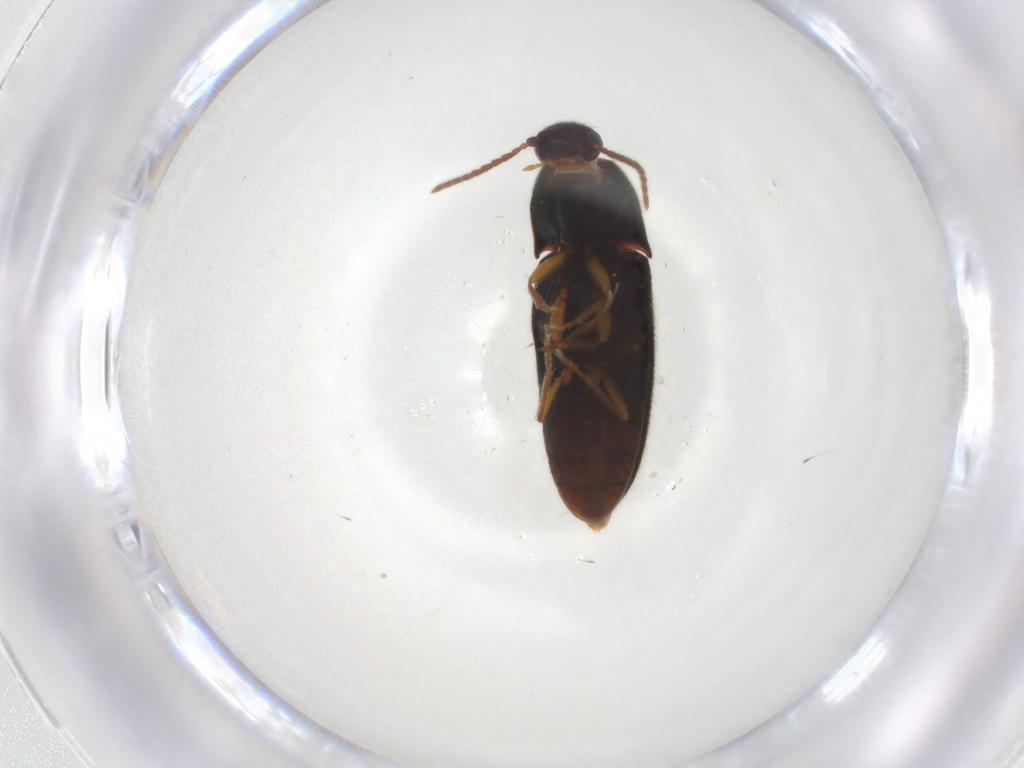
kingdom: Animalia
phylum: Arthropoda
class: Insecta
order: Coleoptera
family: Elateridae
